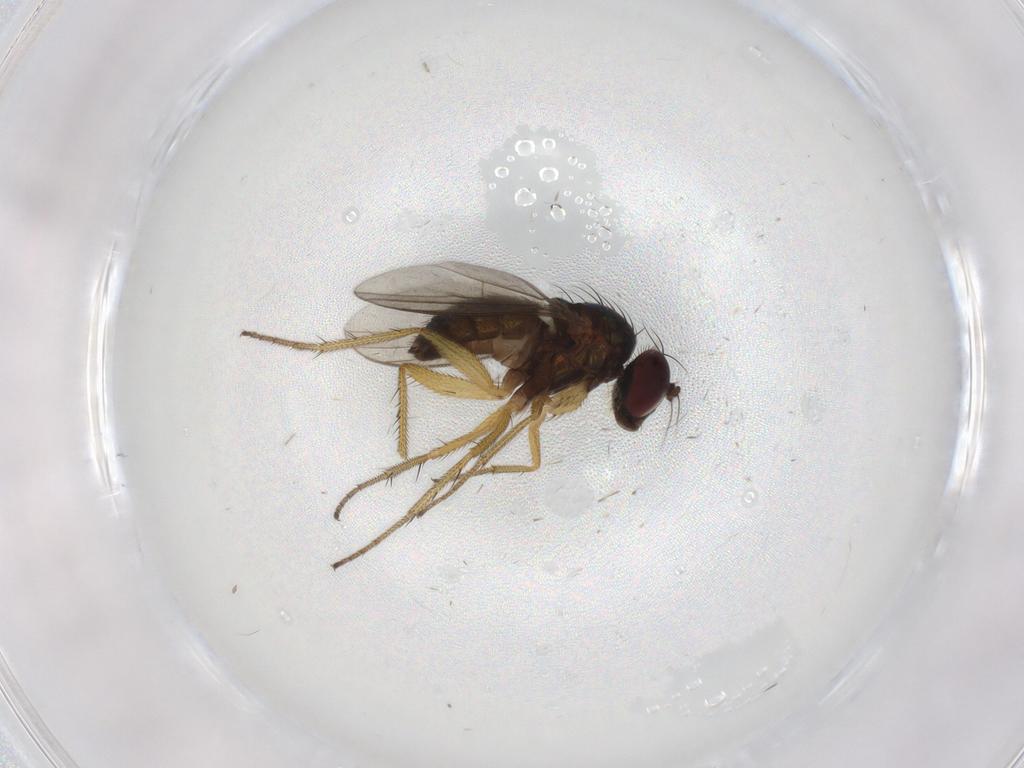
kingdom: Animalia
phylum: Arthropoda
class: Insecta
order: Diptera
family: Dolichopodidae
